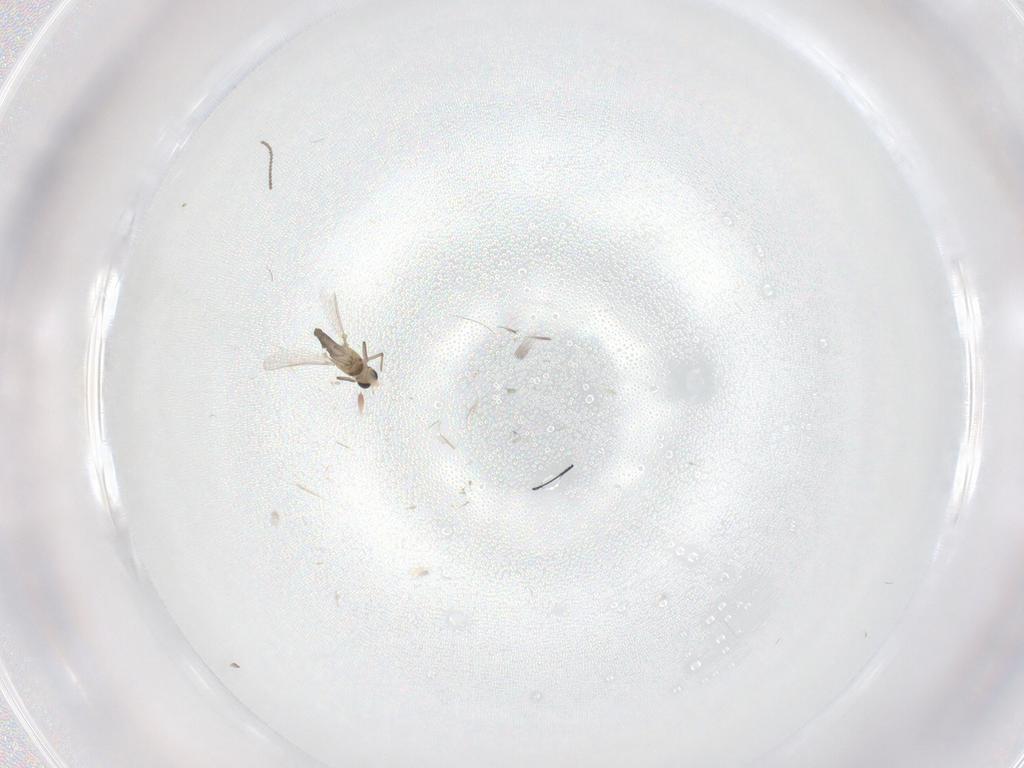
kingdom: Animalia
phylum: Arthropoda
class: Insecta
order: Diptera
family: Chironomidae
